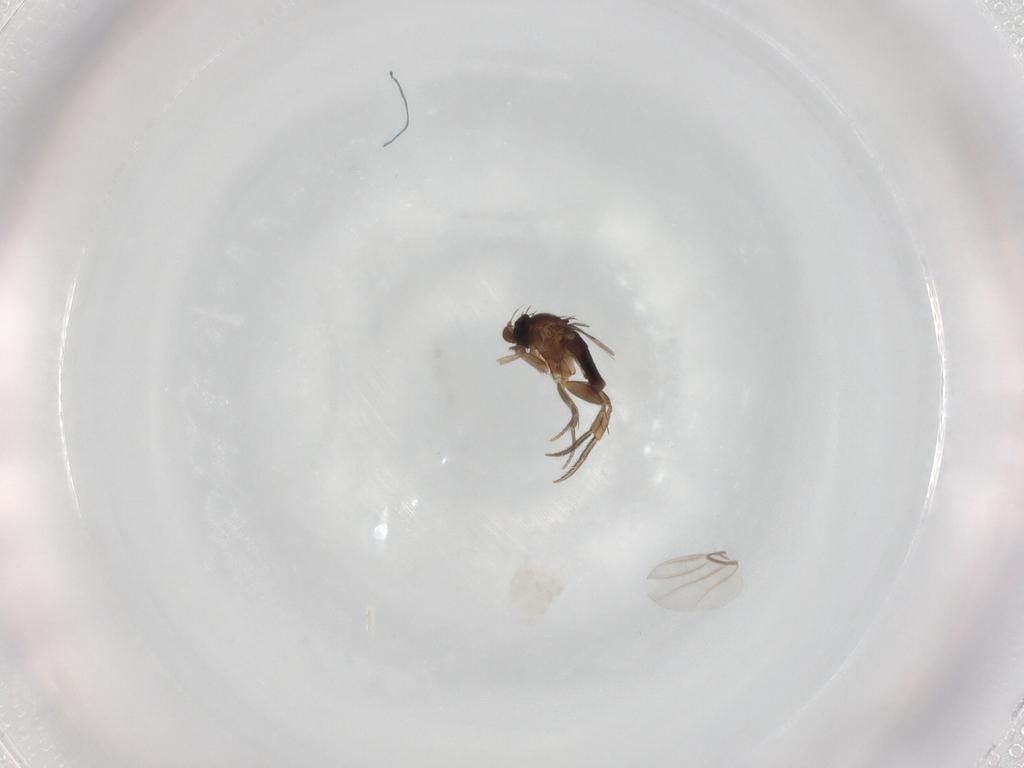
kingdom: Animalia
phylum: Arthropoda
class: Insecta
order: Diptera
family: Phoridae
